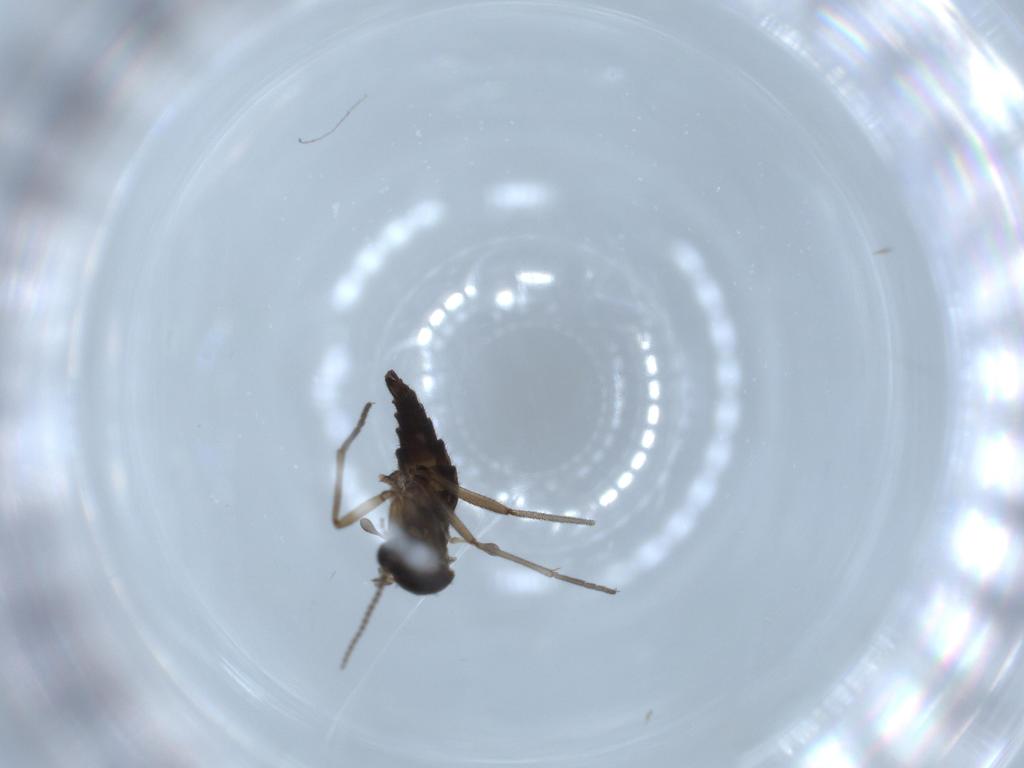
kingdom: Animalia
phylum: Arthropoda
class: Insecta
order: Diptera
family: Sciaridae
